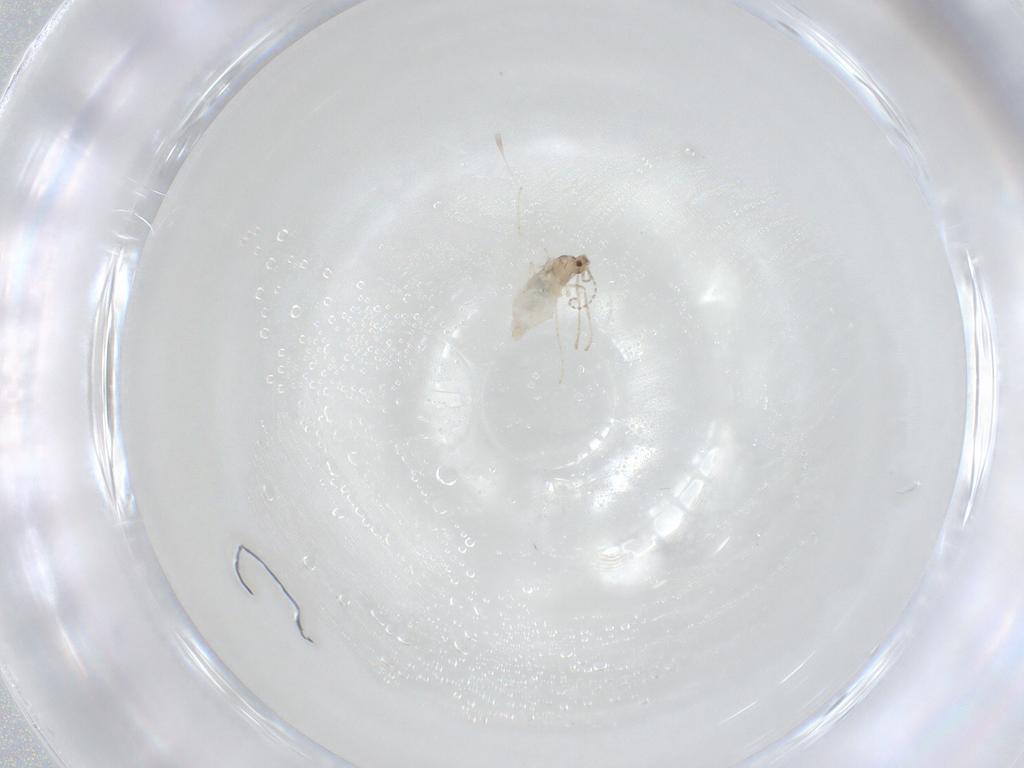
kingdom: Animalia
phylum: Arthropoda
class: Insecta
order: Diptera
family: Cecidomyiidae
